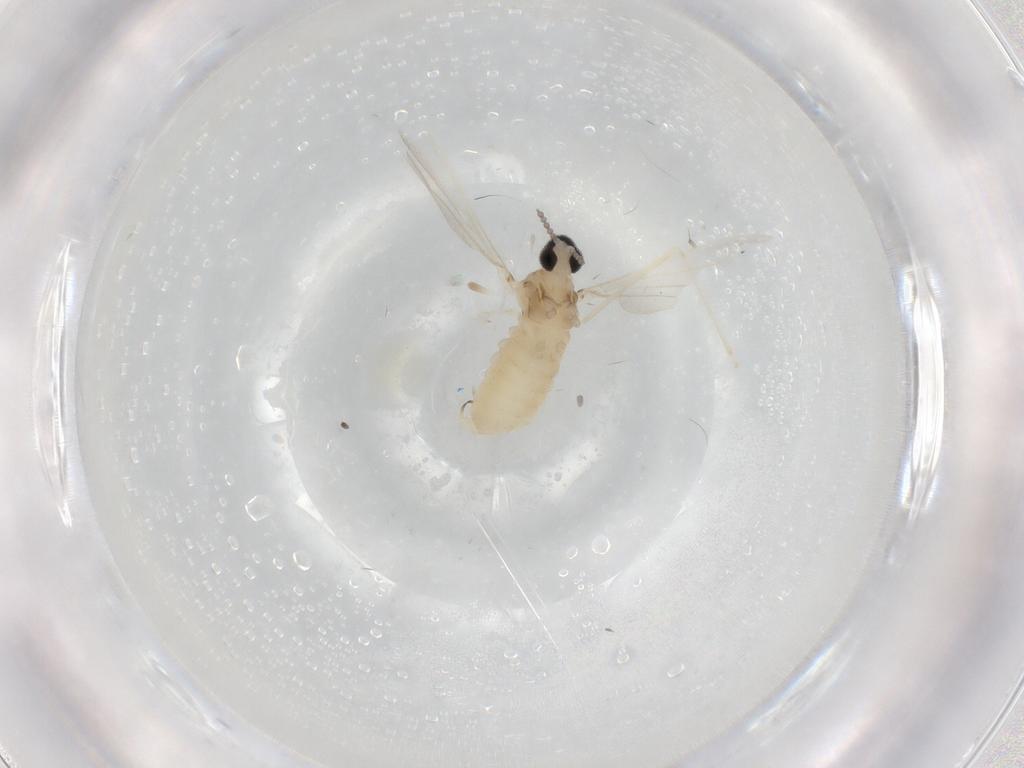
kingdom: Animalia
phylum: Arthropoda
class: Insecta
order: Diptera
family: Cecidomyiidae
